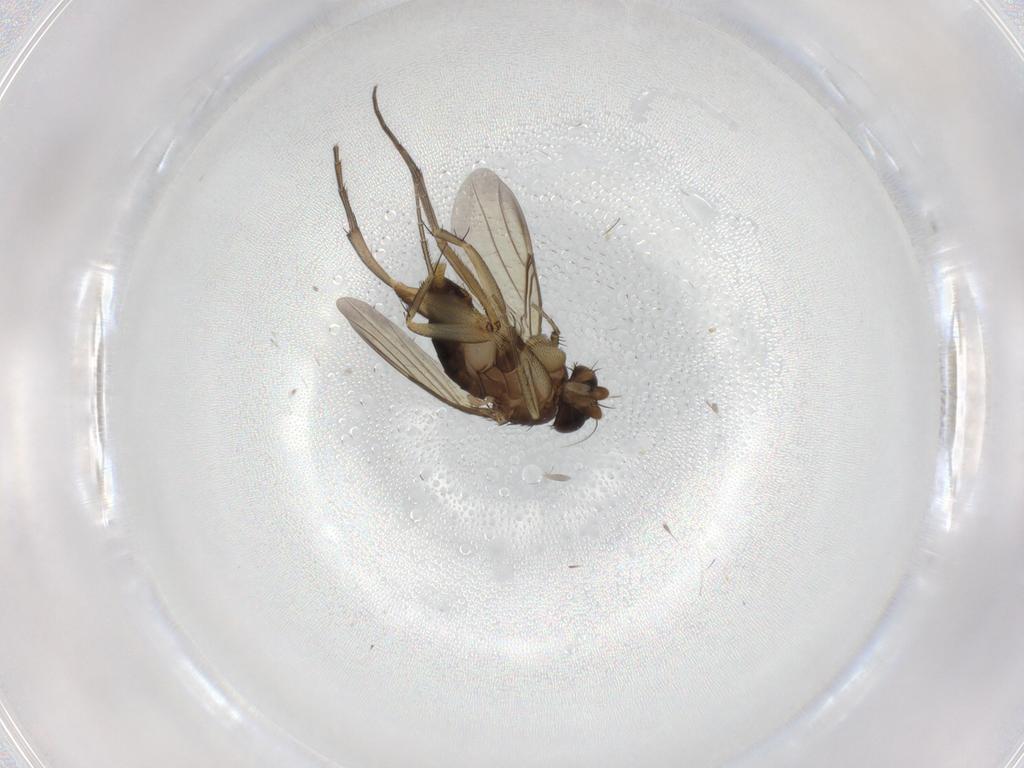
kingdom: Animalia
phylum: Arthropoda
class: Insecta
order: Diptera
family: Phoridae
